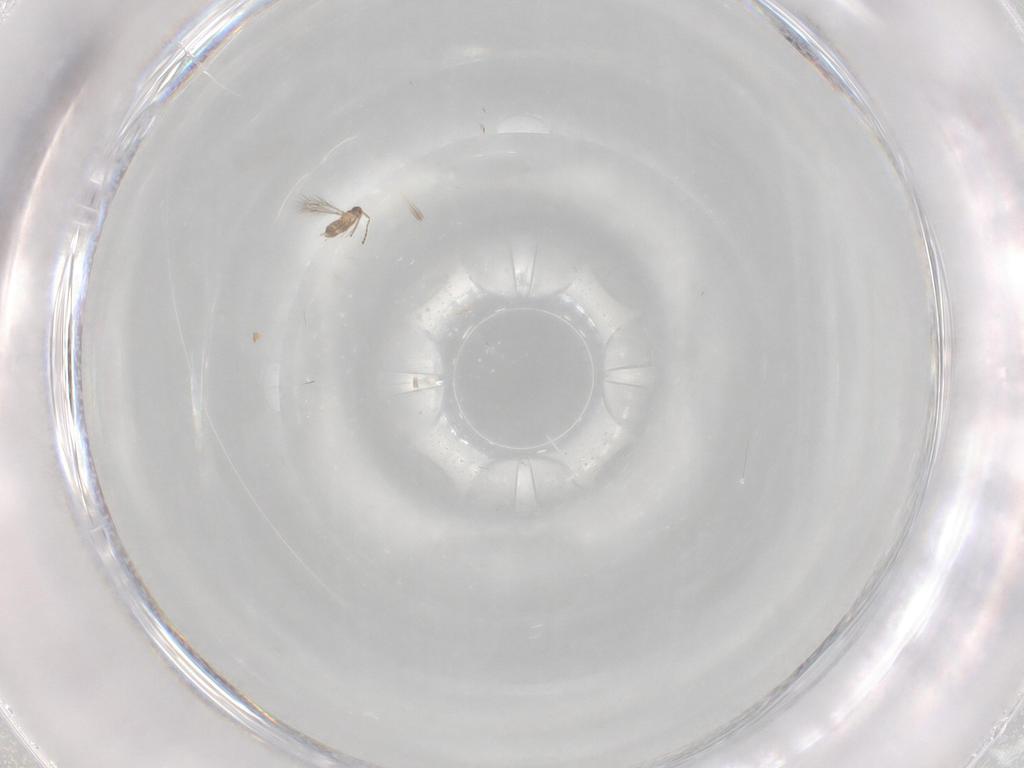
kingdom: Animalia
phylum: Arthropoda
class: Insecta
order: Hymenoptera
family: Mymaridae
